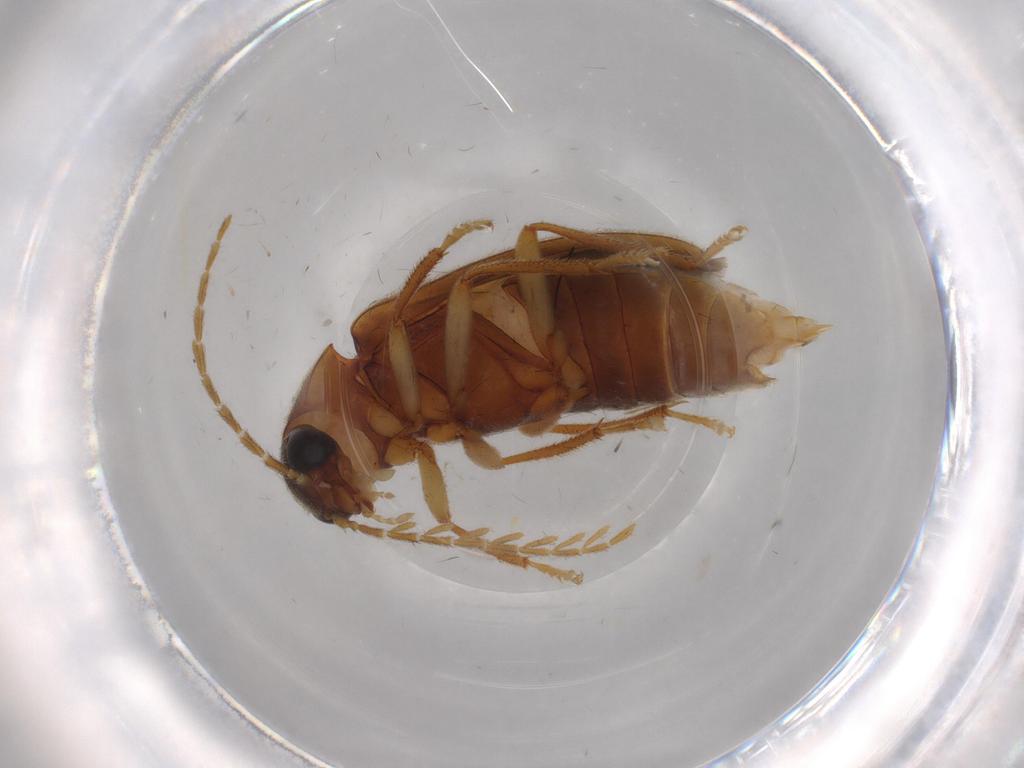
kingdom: Animalia
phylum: Arthropoda
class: Insecta
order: Coleoptera
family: Ptilodactylidae
